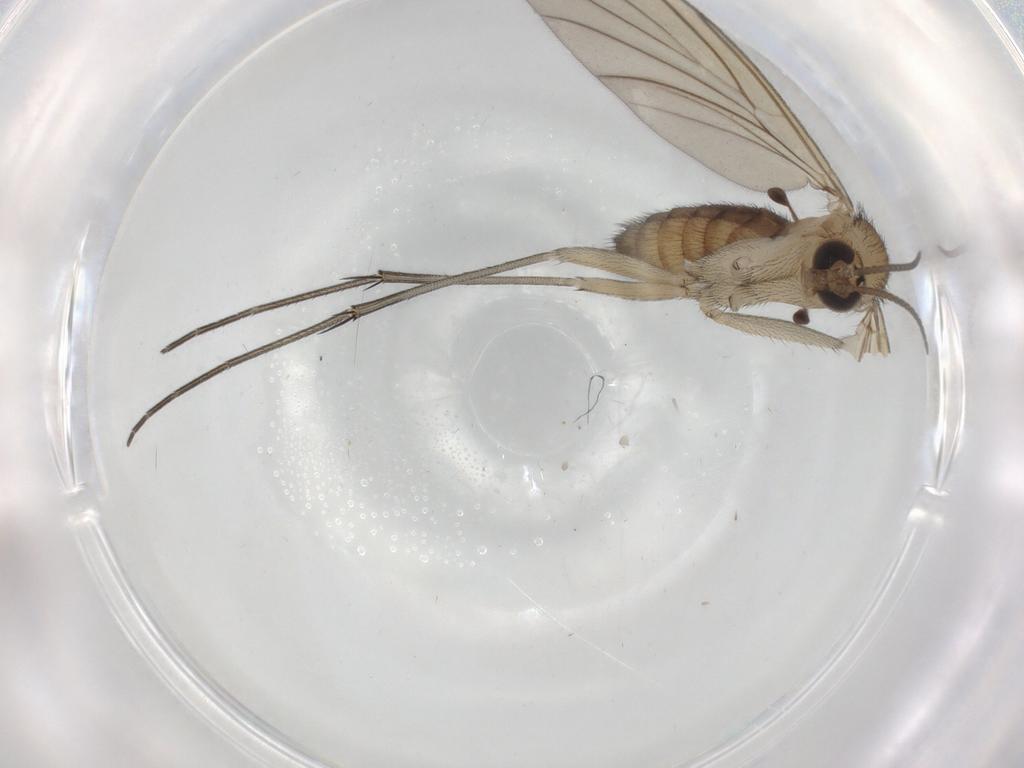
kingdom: Animalia
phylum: Arthropoda
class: Insecta
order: Diptera
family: Keroplatidae
